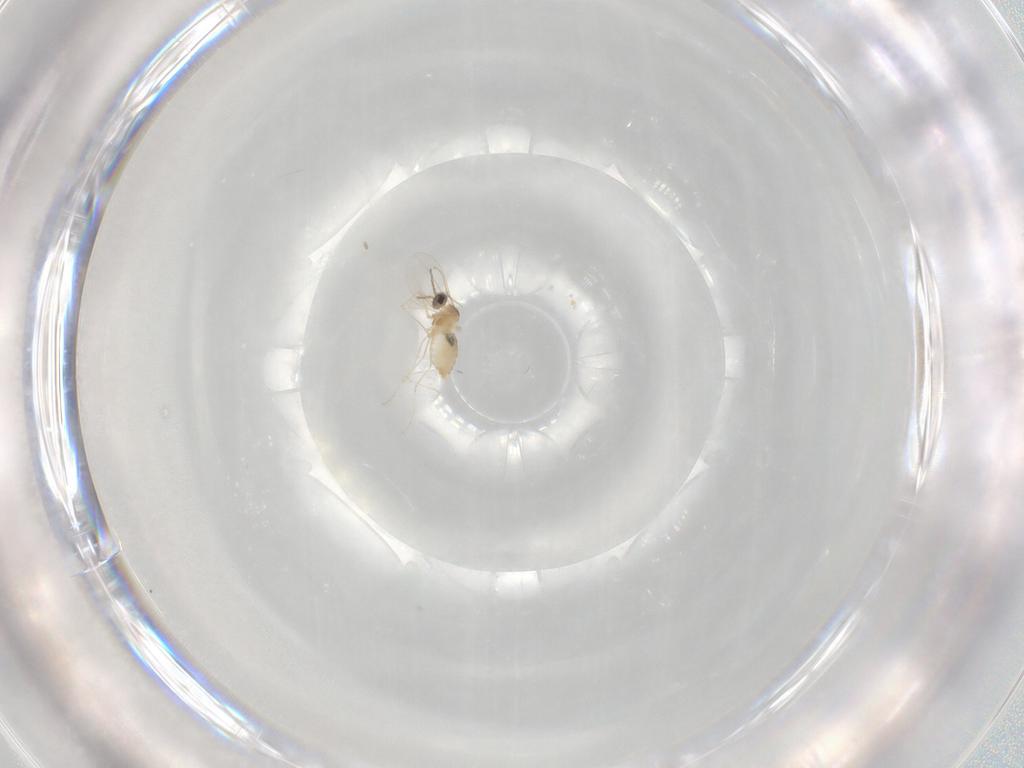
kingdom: Animalia
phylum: Arthropoda
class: Insecta
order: Diptera
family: Cecidomyiidae
